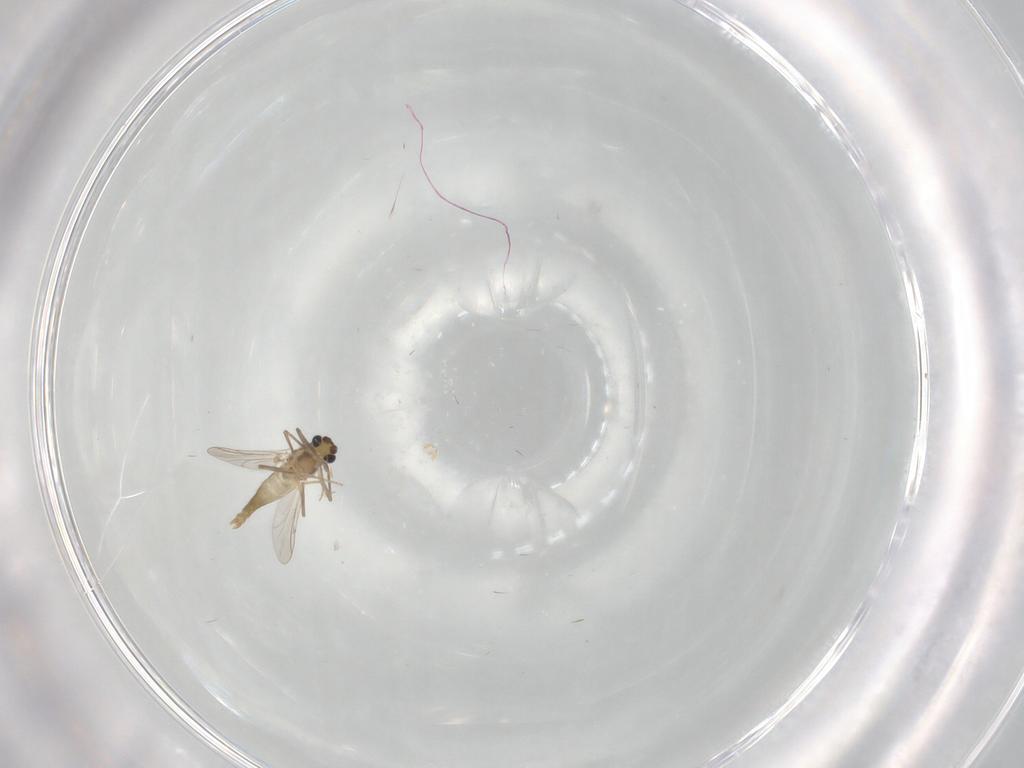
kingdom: Animalia
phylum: Arthropoda
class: Insecta
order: Diptera
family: Chironomidae
